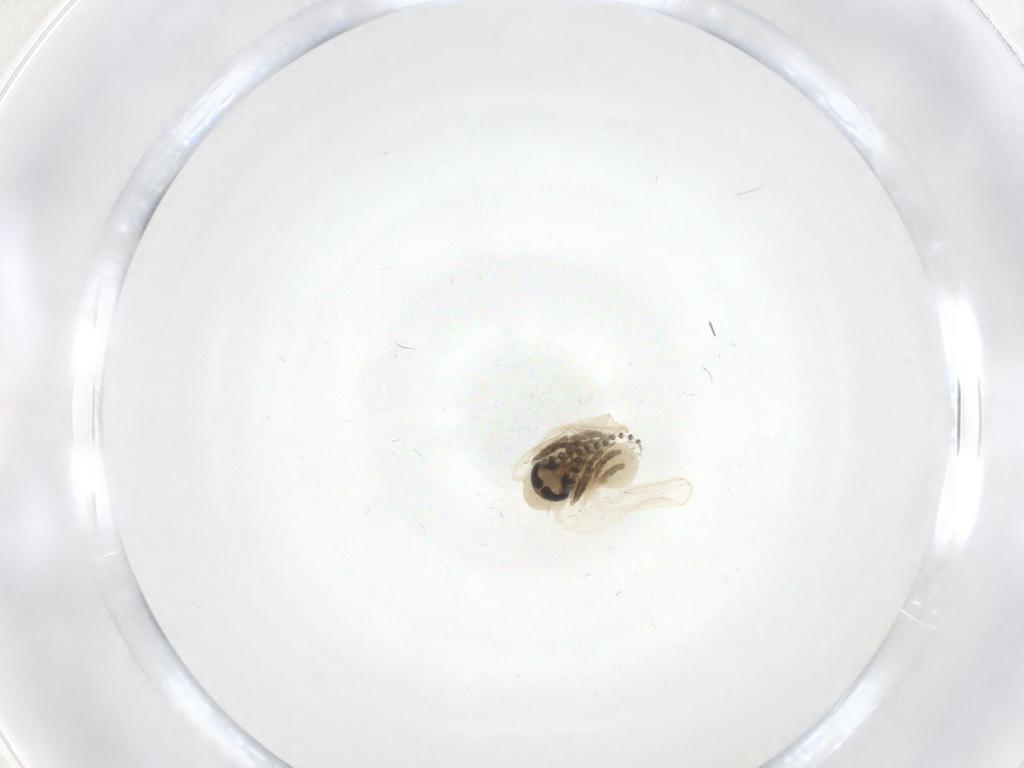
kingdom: Animalia
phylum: Arthropoda
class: Insecta
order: Diptera
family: Psychodidae
